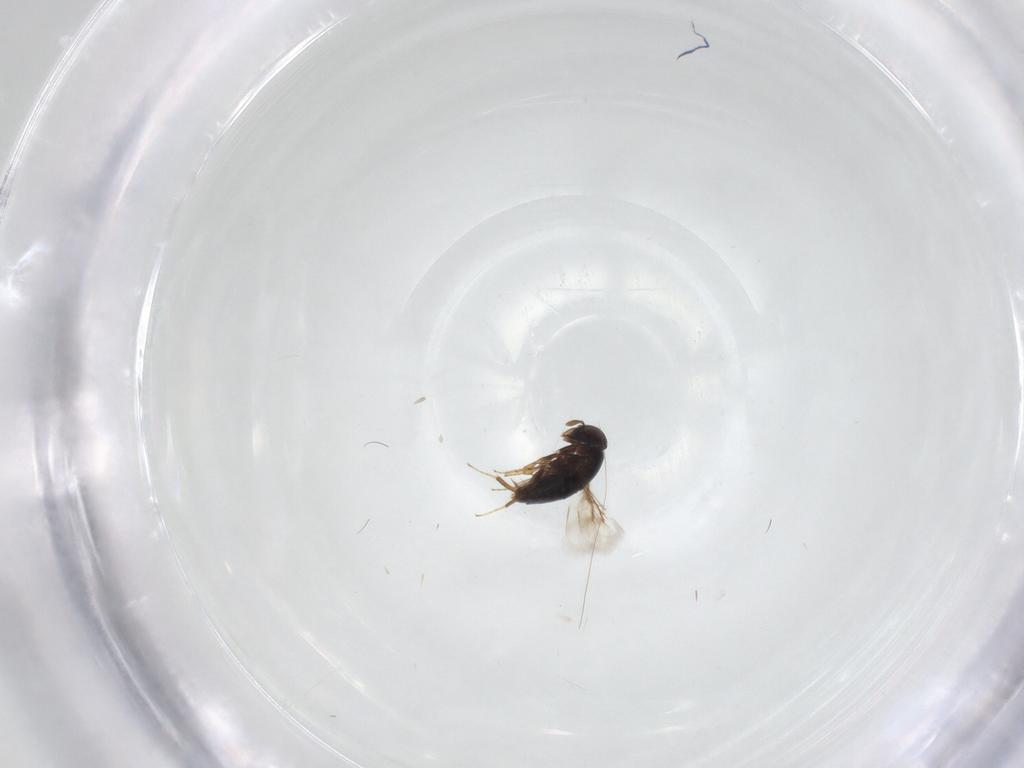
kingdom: Animalia
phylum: Arthropoda
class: Insecta
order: Hymenoptera
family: Signiphoridae
